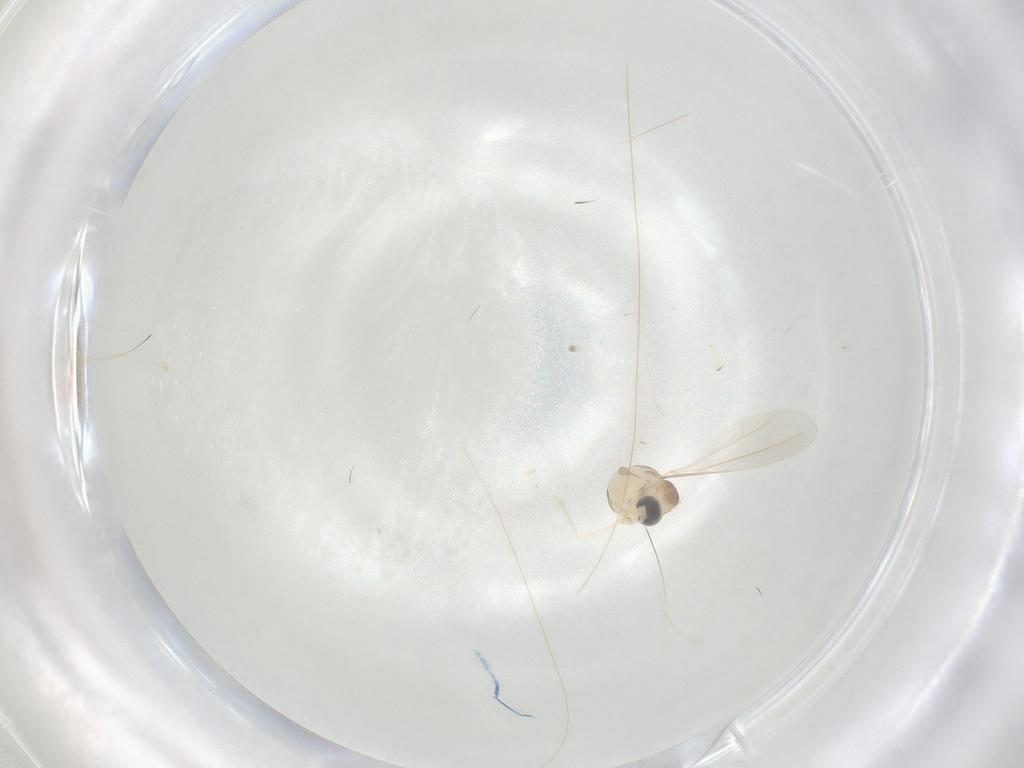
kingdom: Animalia
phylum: Arthropoda
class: Insecta
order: Diptera
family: Cecidomyiidae
